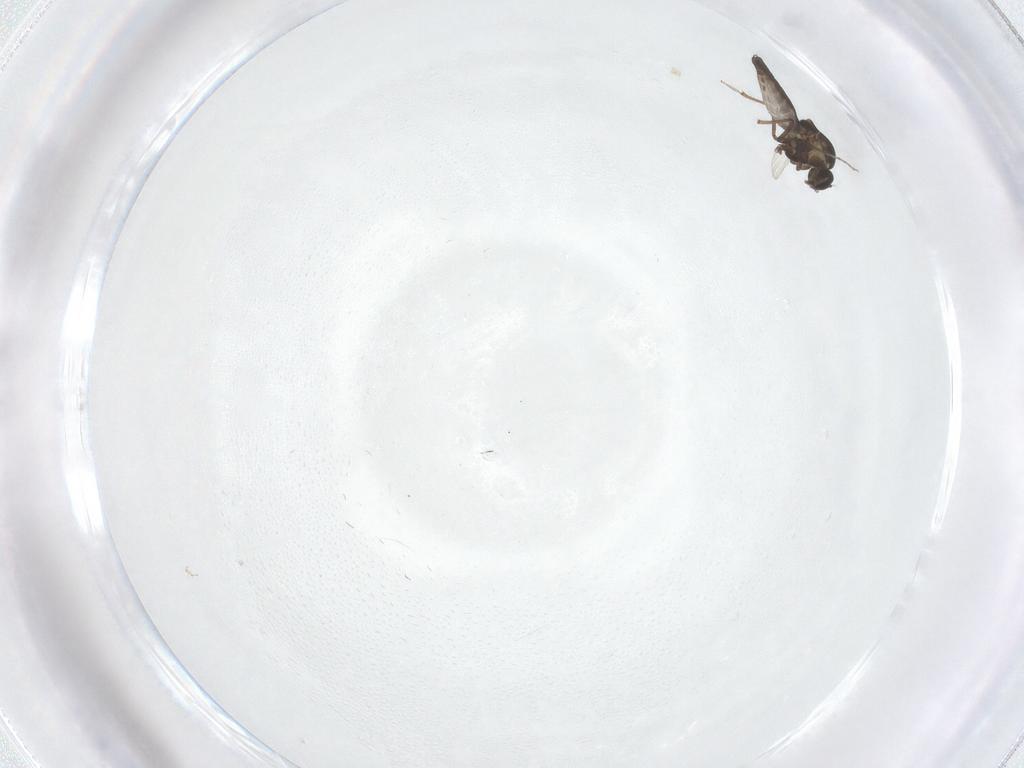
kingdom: Animalia
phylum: Arthropoda
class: Insecta
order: Diptera
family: Ceratopogonidae
